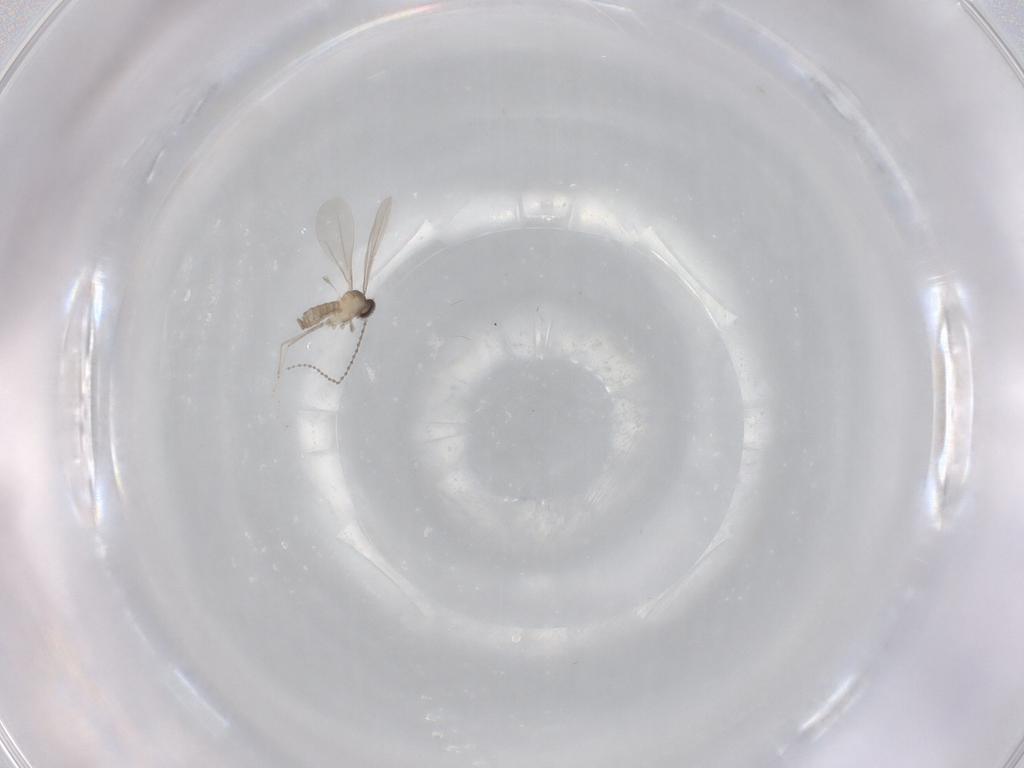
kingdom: Animalia
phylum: Arthropoda
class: Insecta
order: Diptera
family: Cecidomyiidae
